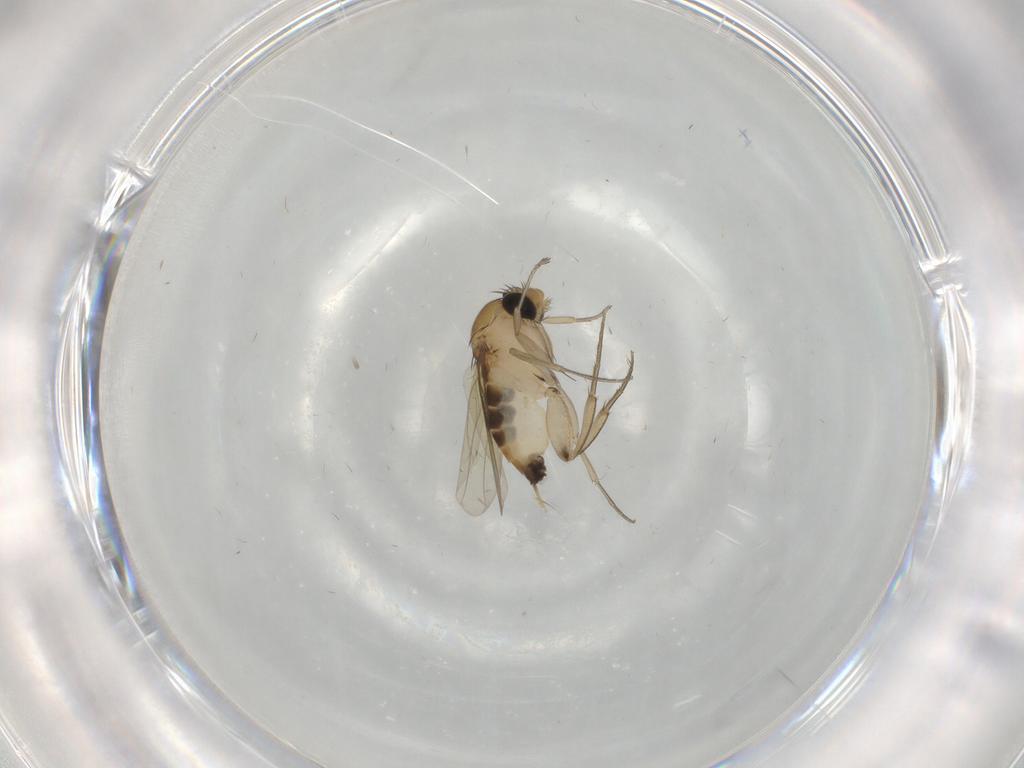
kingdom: Animalia
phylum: Arthropoda
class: Insecta
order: Diptera
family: Phoridae
